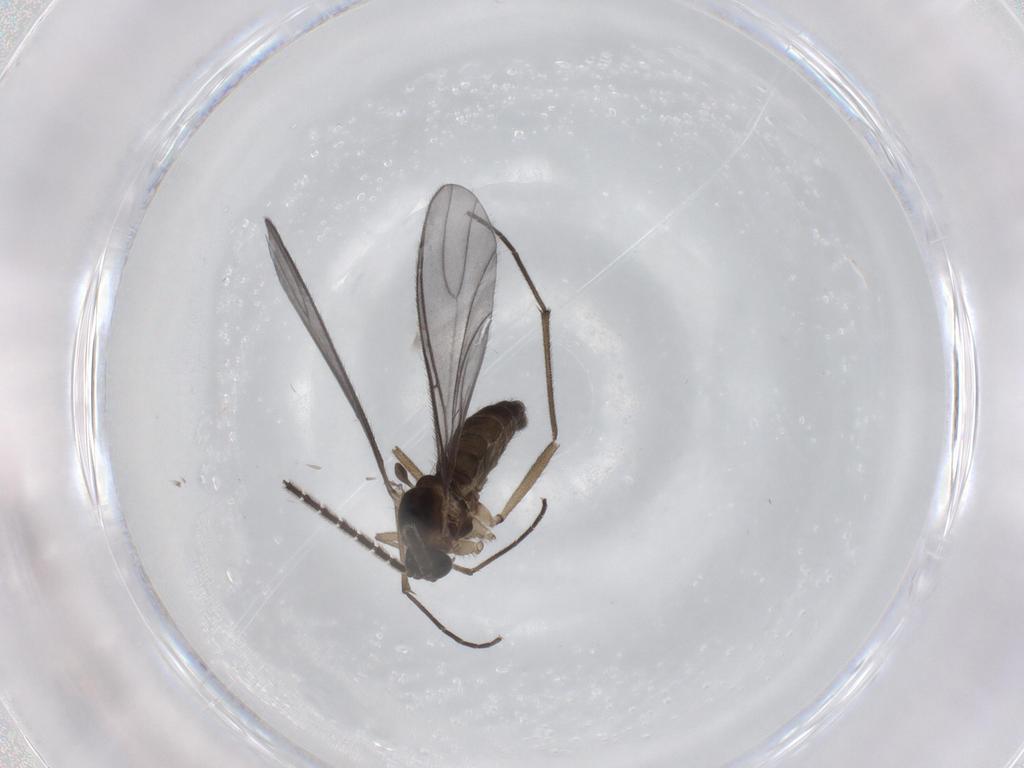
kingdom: Animalia
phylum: Arthropoda
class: Insecta
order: Diptera
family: Sciaridae
